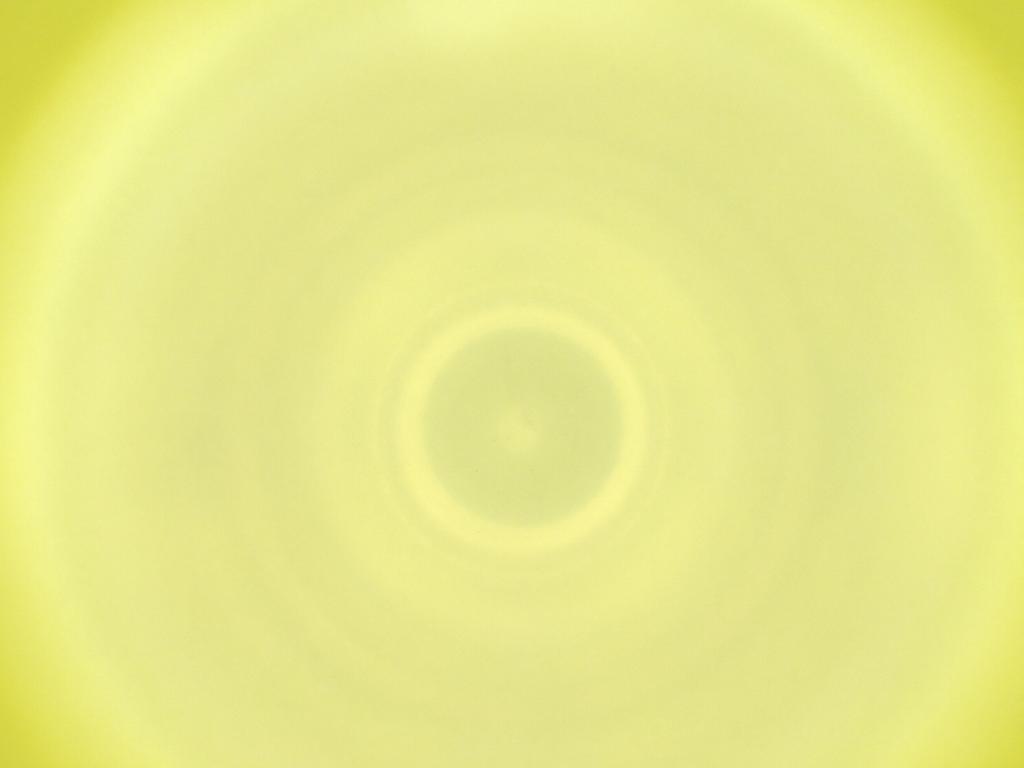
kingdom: Animalia
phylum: Arthropoda
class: Insecta
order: Diptera
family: Cecidomyiidae
